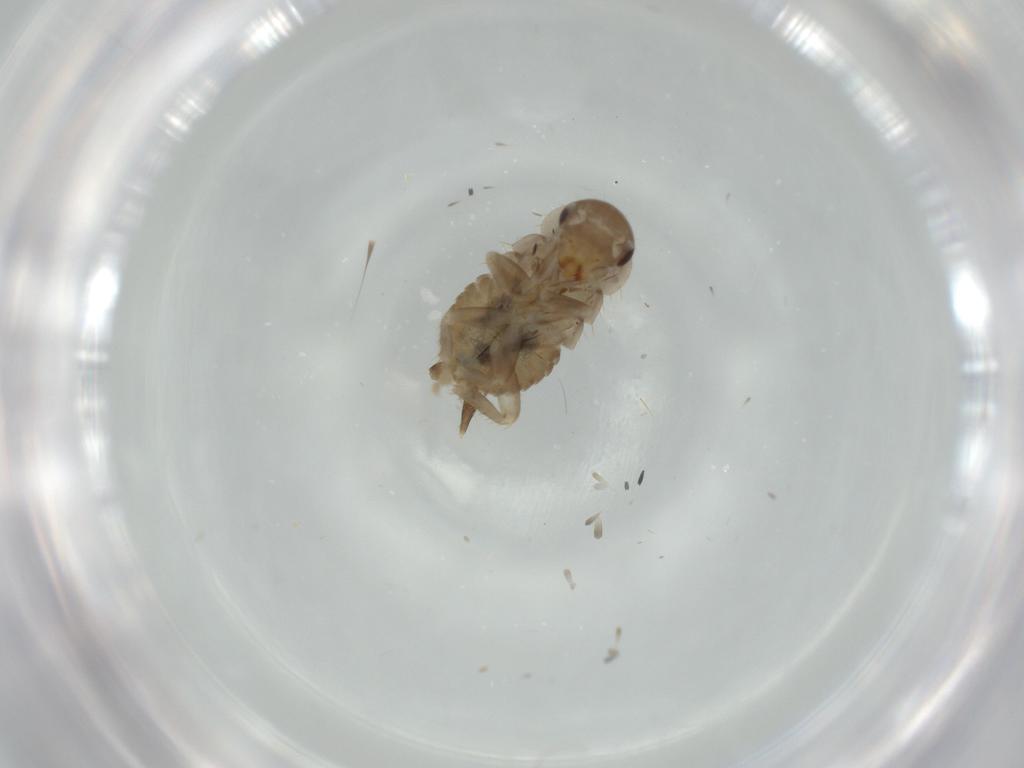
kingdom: Animalia
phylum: Arthropoda
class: Insecta
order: Blattodea
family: Ectobiidae
